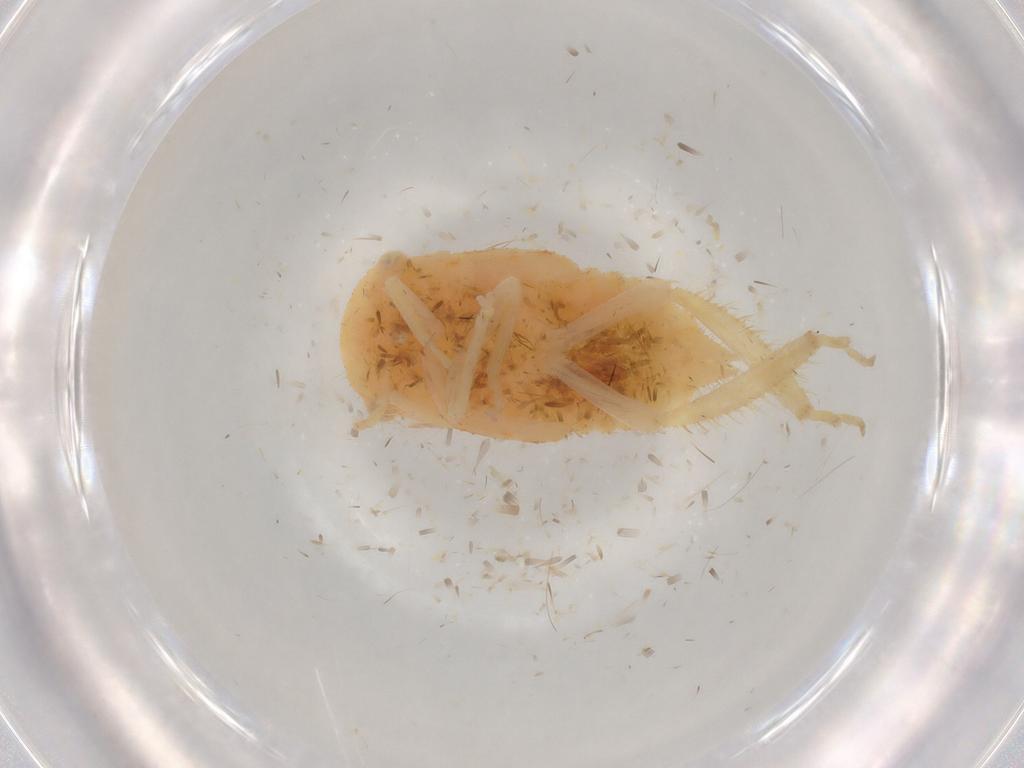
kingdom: Animalia
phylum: Arthropoda
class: Insecta
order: Hemiptera
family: Cicadellidae
